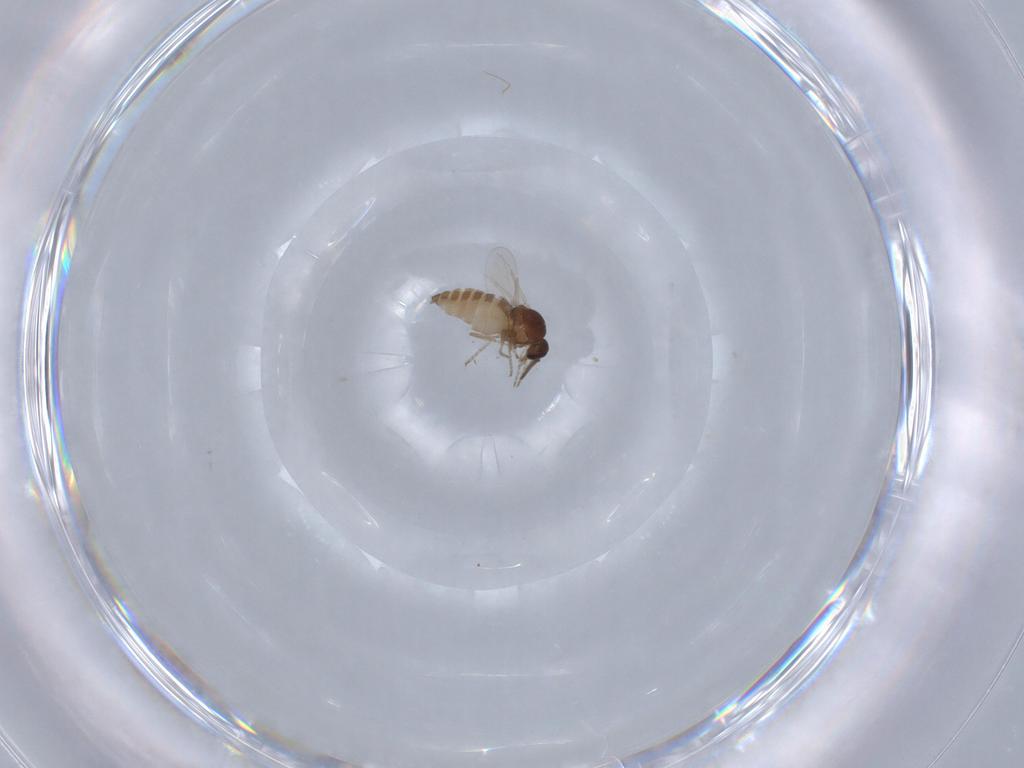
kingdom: Animalia
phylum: Arthropoda
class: Insecta
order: Diptera
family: Ceratopogonidae
